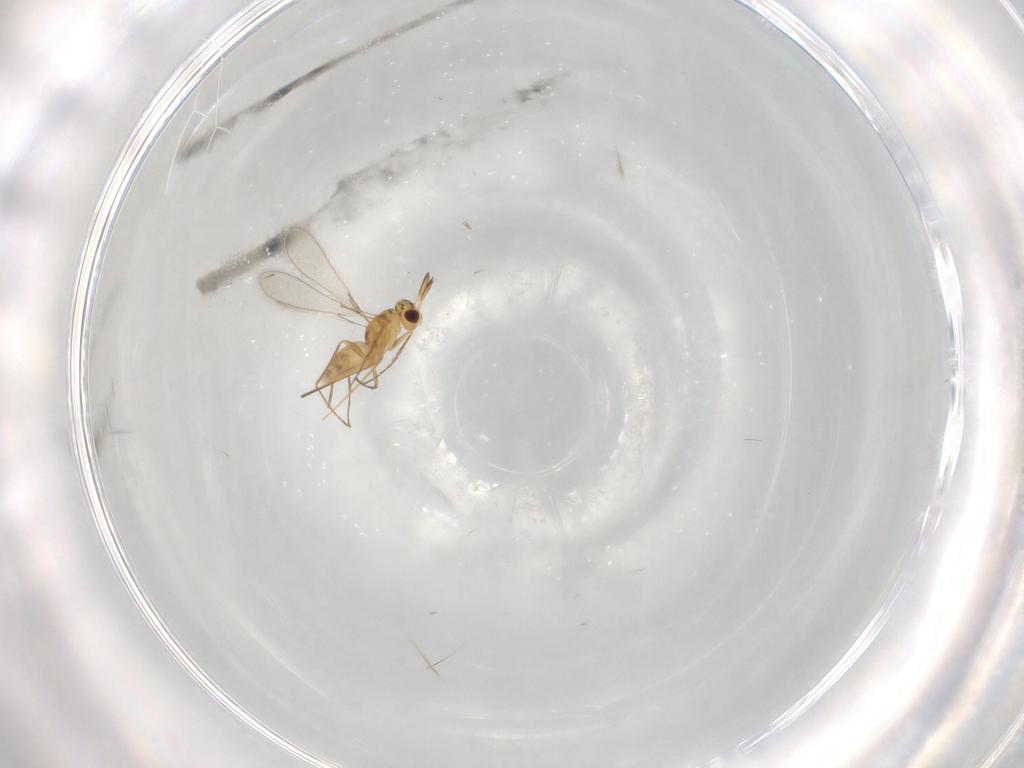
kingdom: Animalia
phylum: Arthropoda
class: Insecta
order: Hymenoptera
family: Mymaridae
